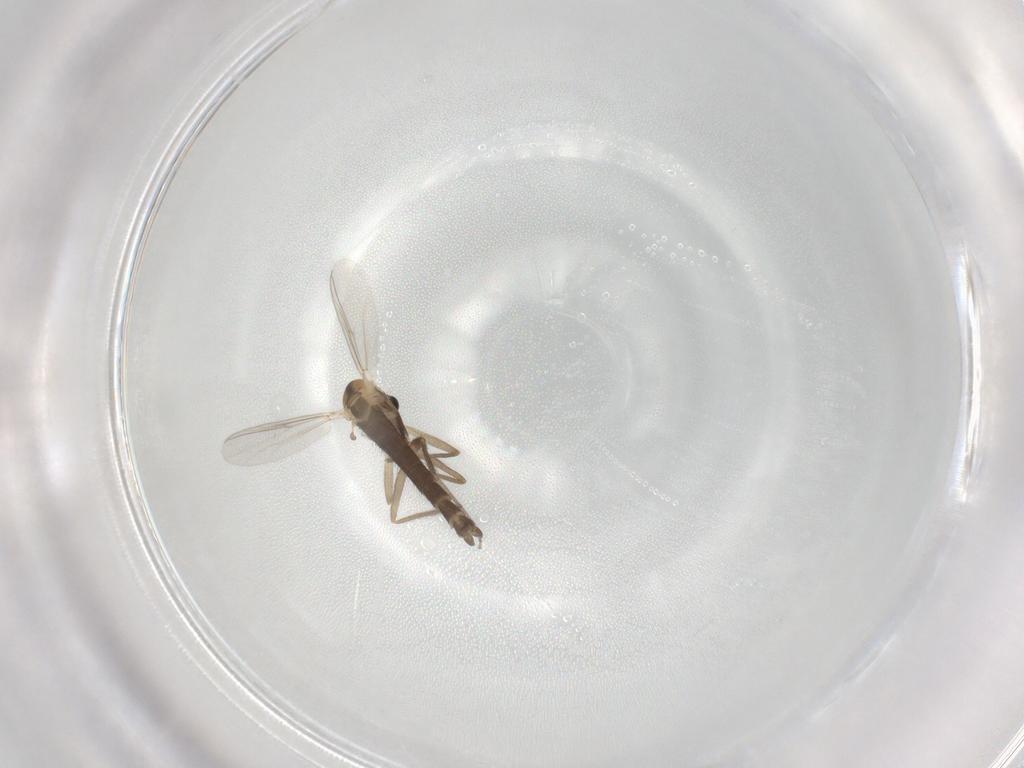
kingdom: Animalia
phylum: Arthropoda
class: Insecta
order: Diptera
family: Chironomidae
